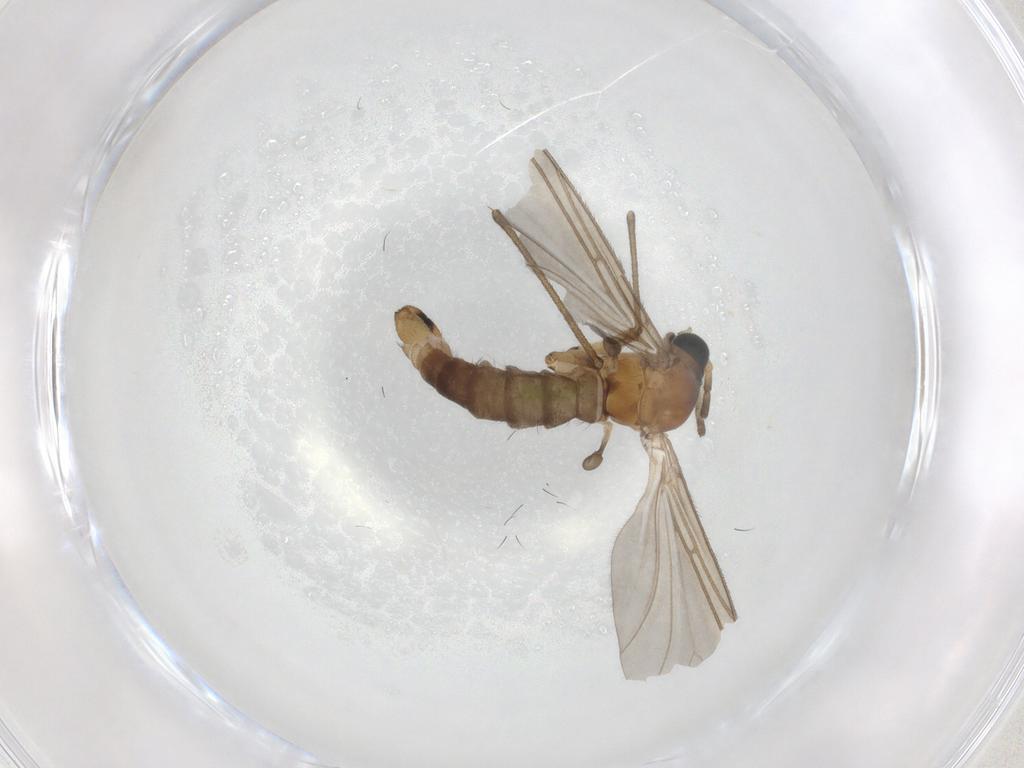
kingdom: Animalia
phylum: Arthropoda
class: Insecta
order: Diptera
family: Sciaridae
